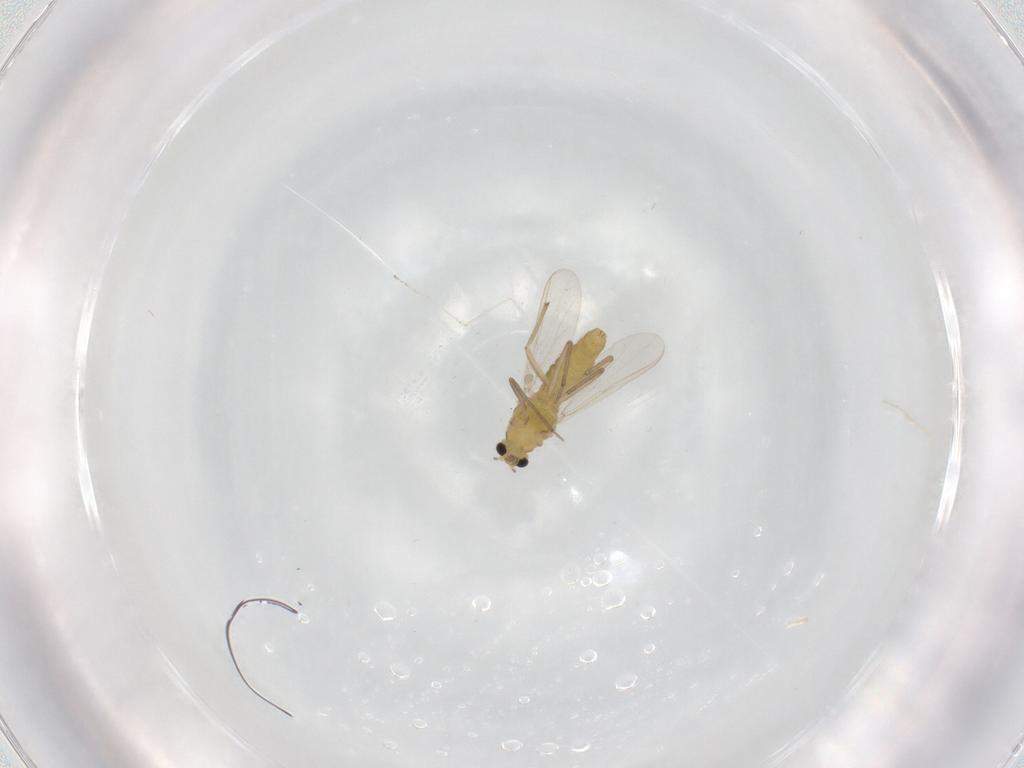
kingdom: Animalia
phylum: Arthropoda
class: Insecta
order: Diptera
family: Chironomidae
